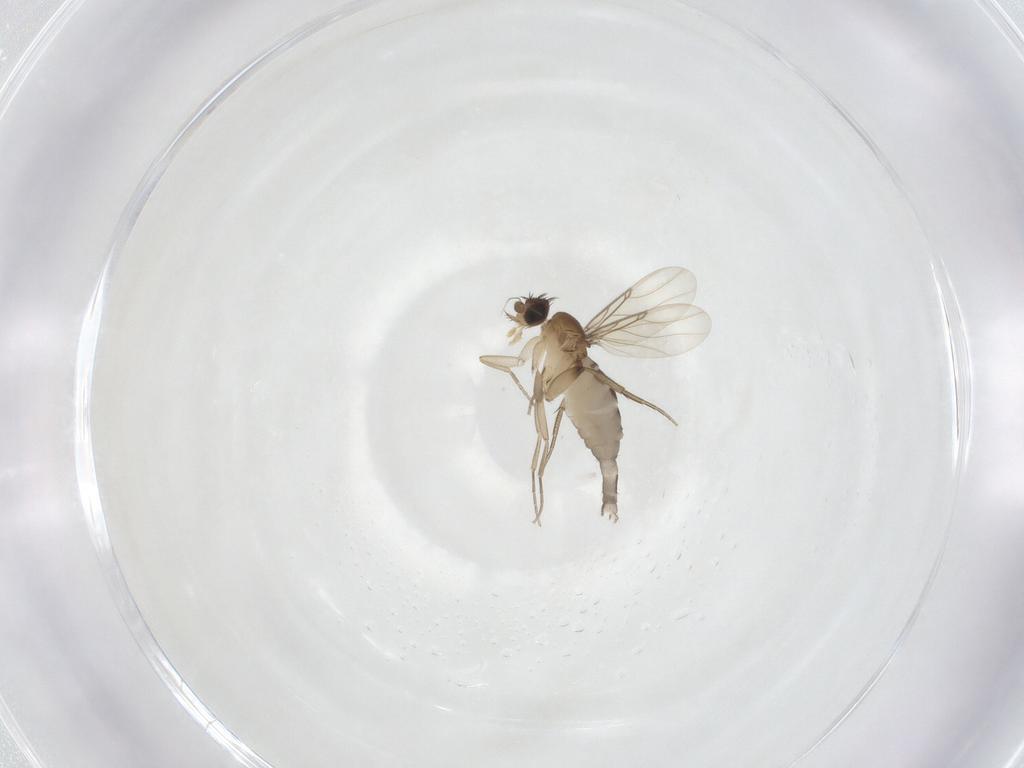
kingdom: Animalia
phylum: Arthropoda
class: Insecta
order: Diptera
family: Phoridae
